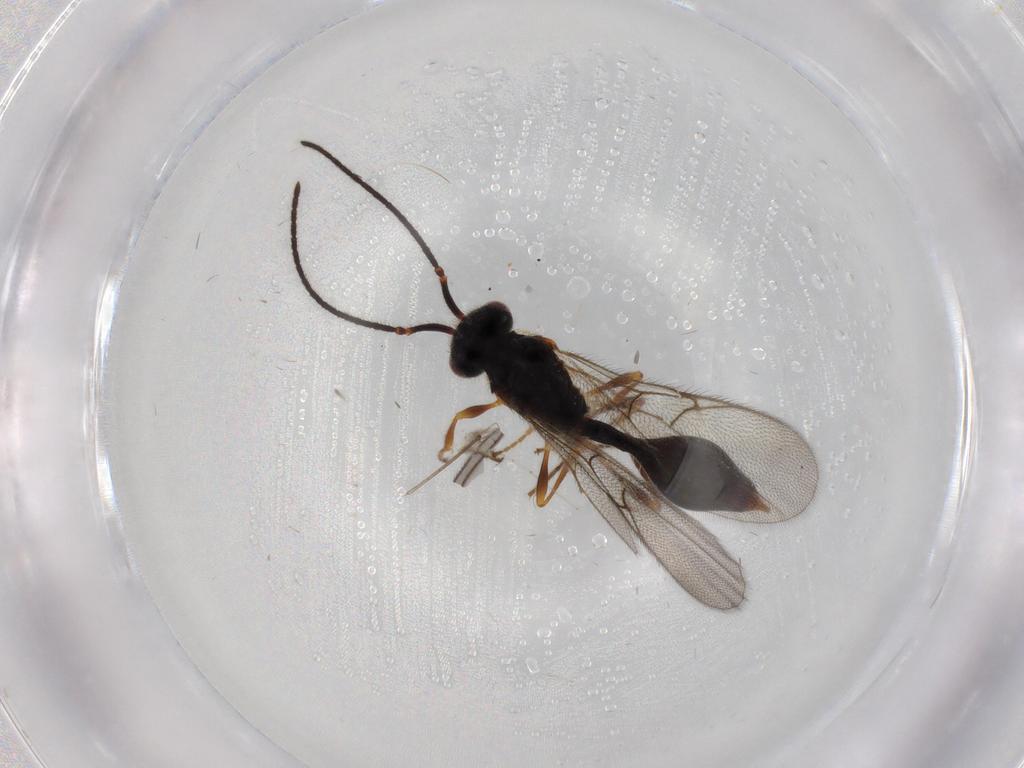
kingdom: Animalia
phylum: Arthropoda
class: Insecta
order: Hymenoptera
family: Diapriidae
